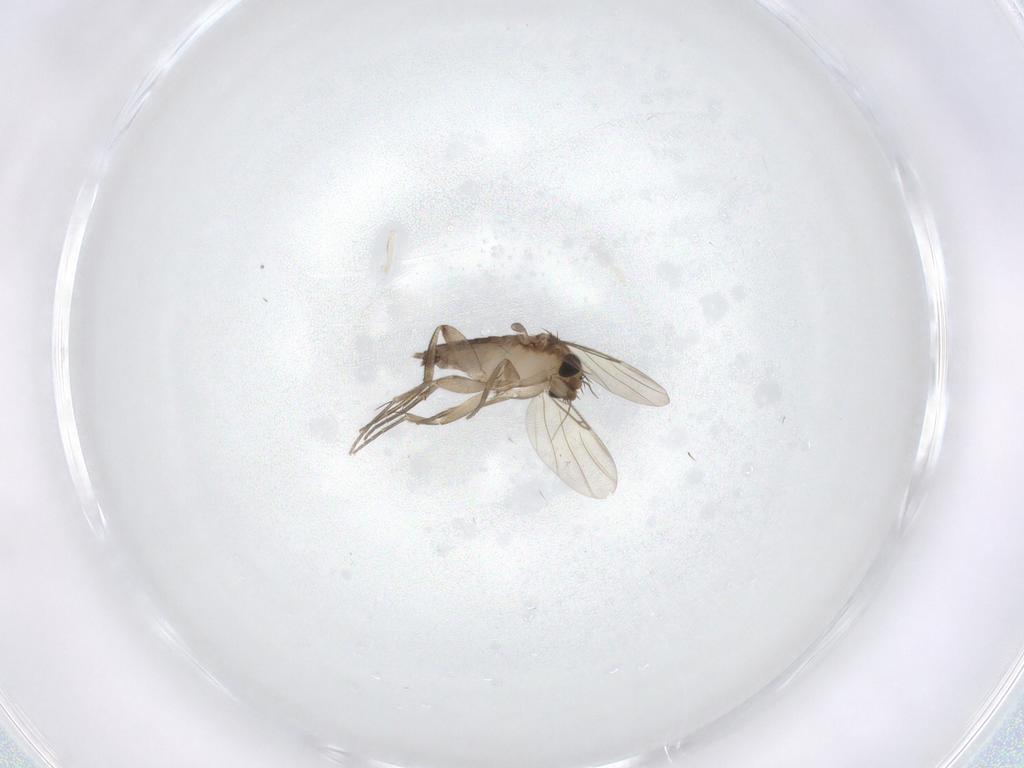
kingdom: Animalia
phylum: Arthropoda
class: Insecta
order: Diptera
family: Psychodidae
